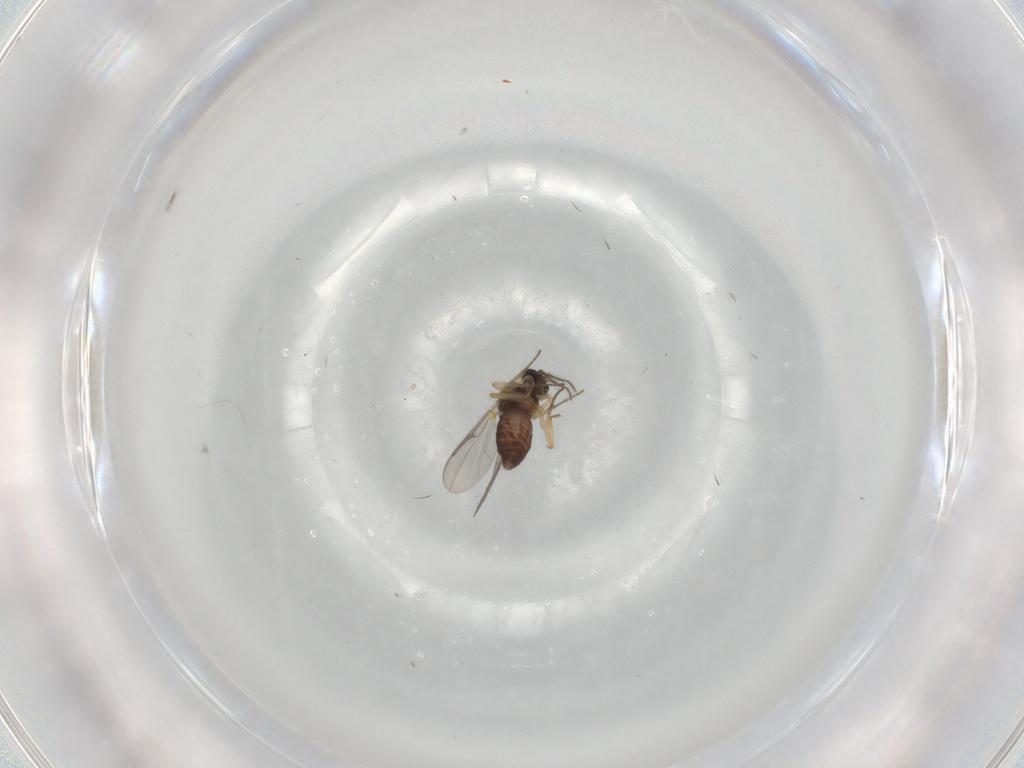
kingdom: Animalia
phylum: Arthropoda
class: Insecta
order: Diptera
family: Ceratopogonidae
